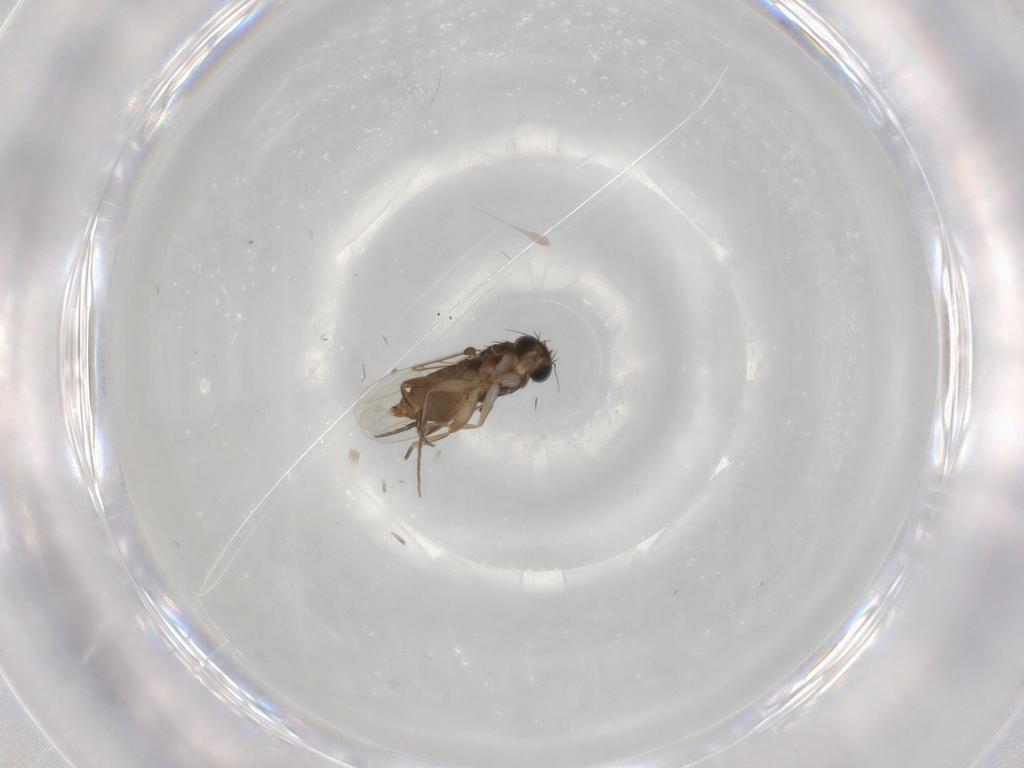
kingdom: Animalia
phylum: Arthropoda
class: Insecta
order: Diptera
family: Phoridae
